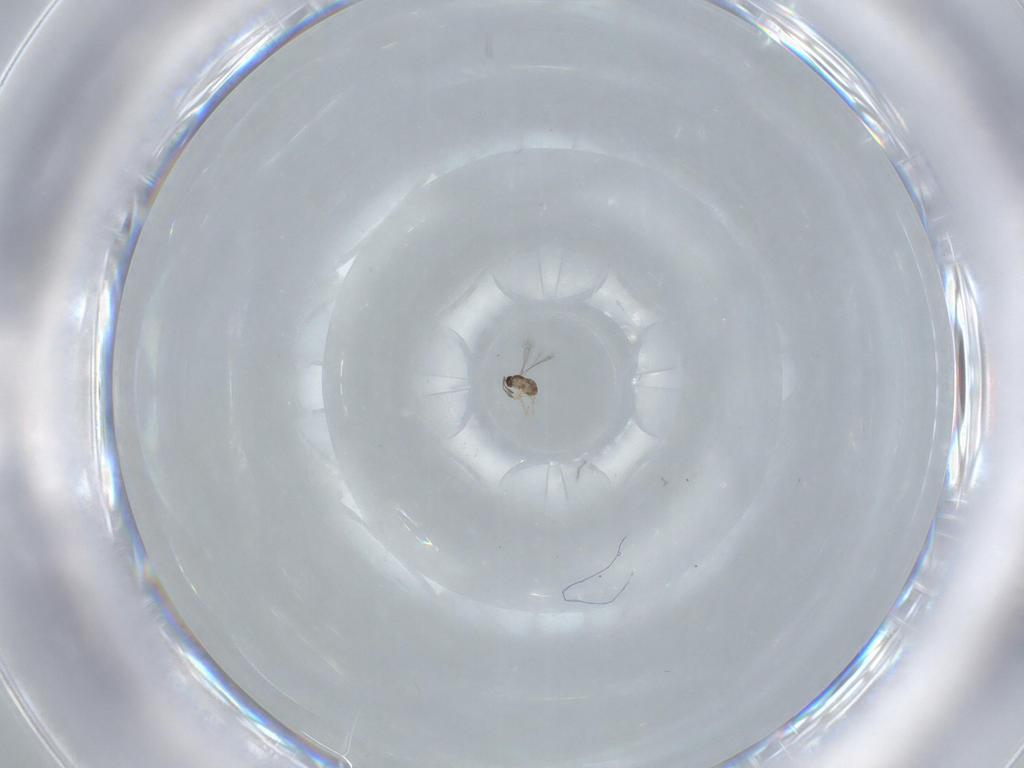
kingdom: Animalia
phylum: Arthropoda
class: Insecta
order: Hymenoptera
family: Mymaridae
